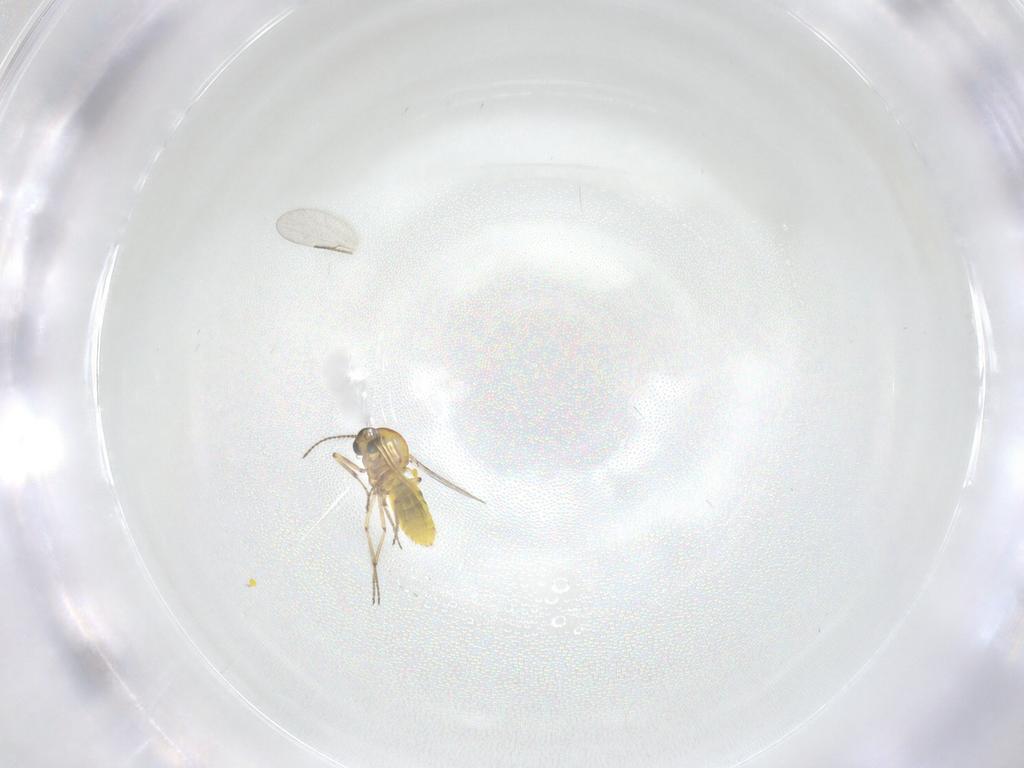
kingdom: Animalia
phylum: Arthropoda
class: Insecta
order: Diptera
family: Ceratopogonidae
